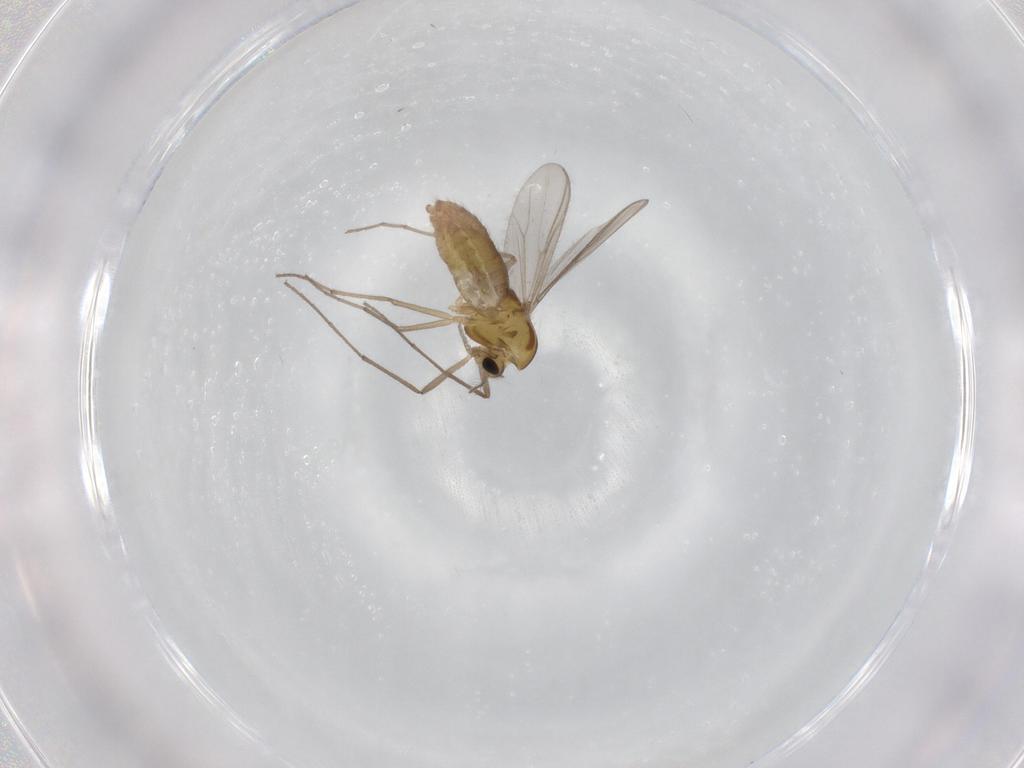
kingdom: Animalia
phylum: Arthropoda
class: Insecta
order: Diptera
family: Chironomidae
